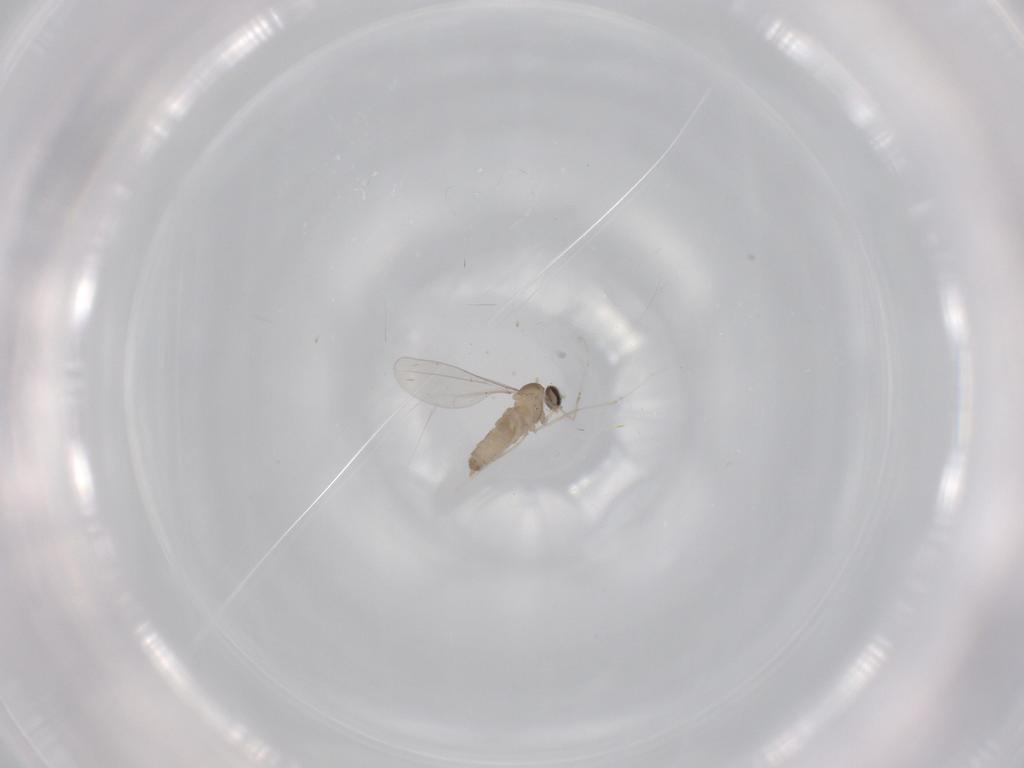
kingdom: Animalia
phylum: Arthropoda
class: Insecta
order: Diptera
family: Cecidomyiidae
